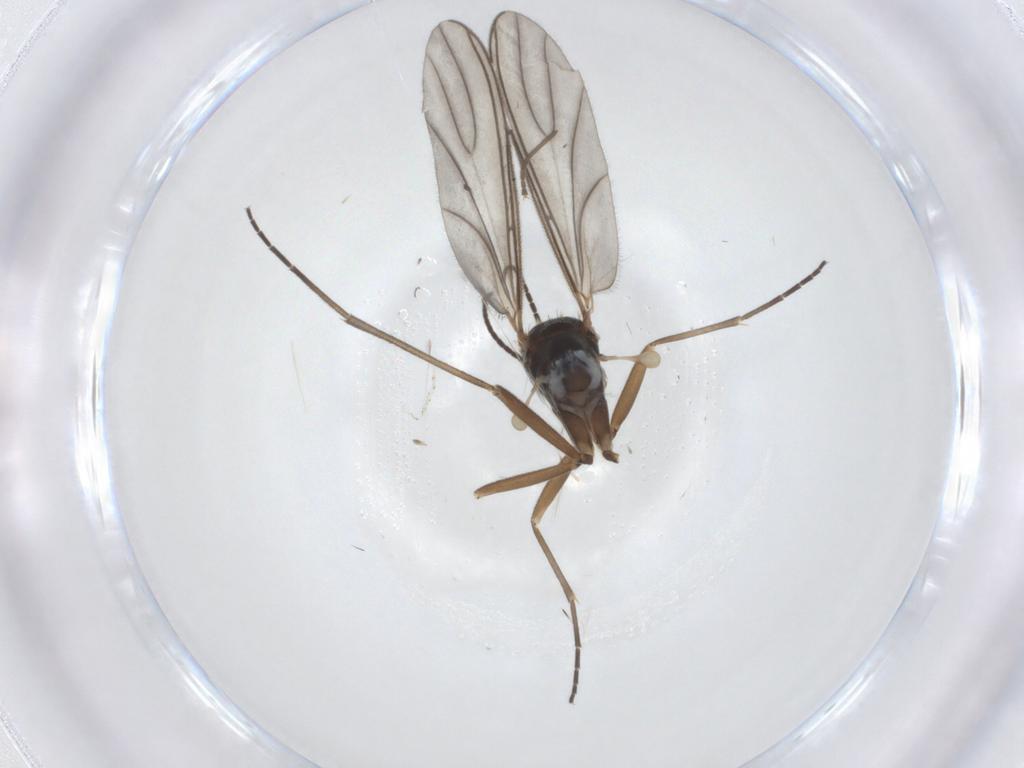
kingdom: Animalia
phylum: Arthropoda
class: Insecta
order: Diptera
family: Sciaridae
